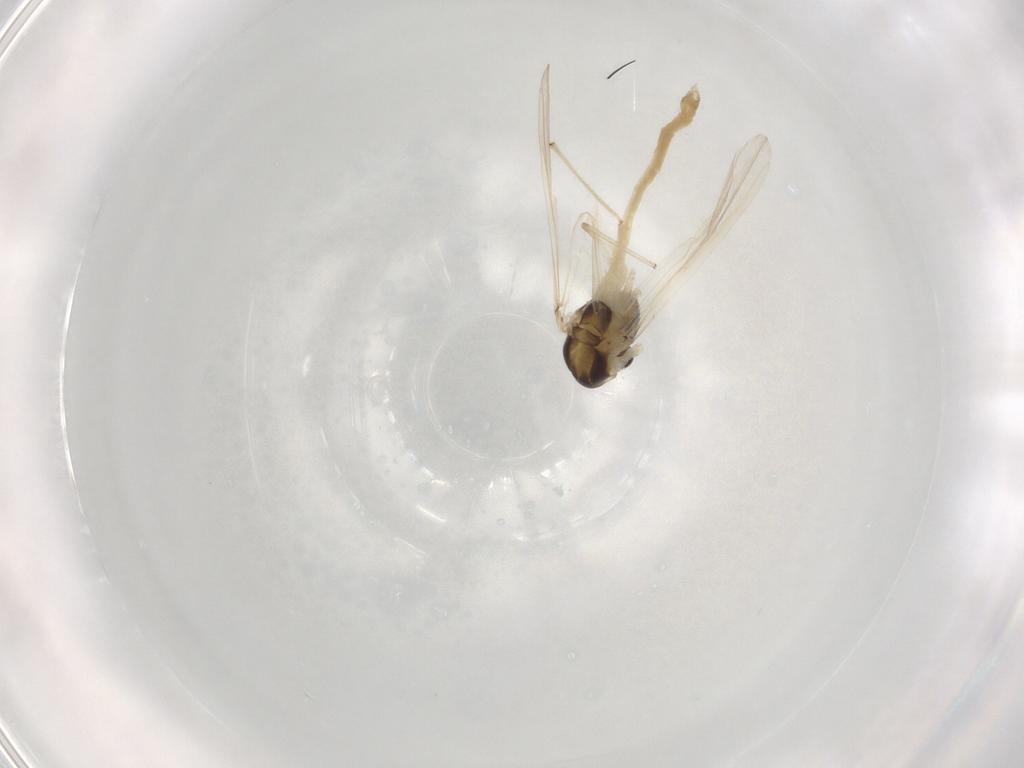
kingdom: Animalia
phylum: Arthropoda
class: Insecta
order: Diptera
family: Chironomidae
